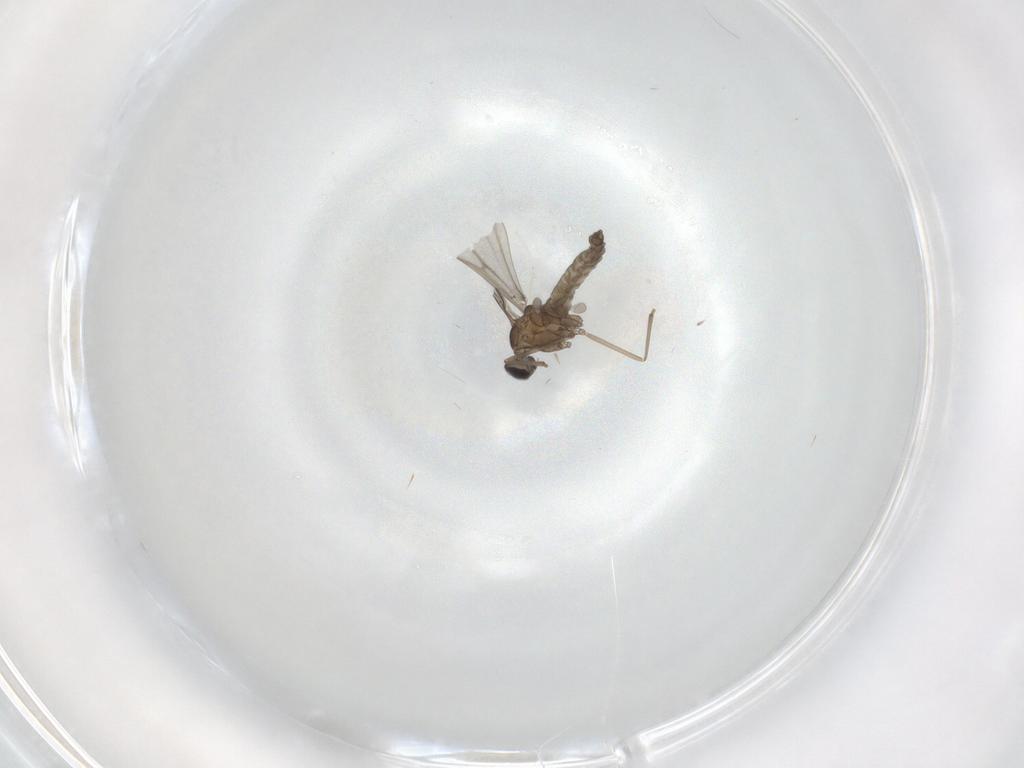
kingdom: Animalia
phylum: Arthropoda
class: Insecta
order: Diptera
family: Cecidomyiidae
